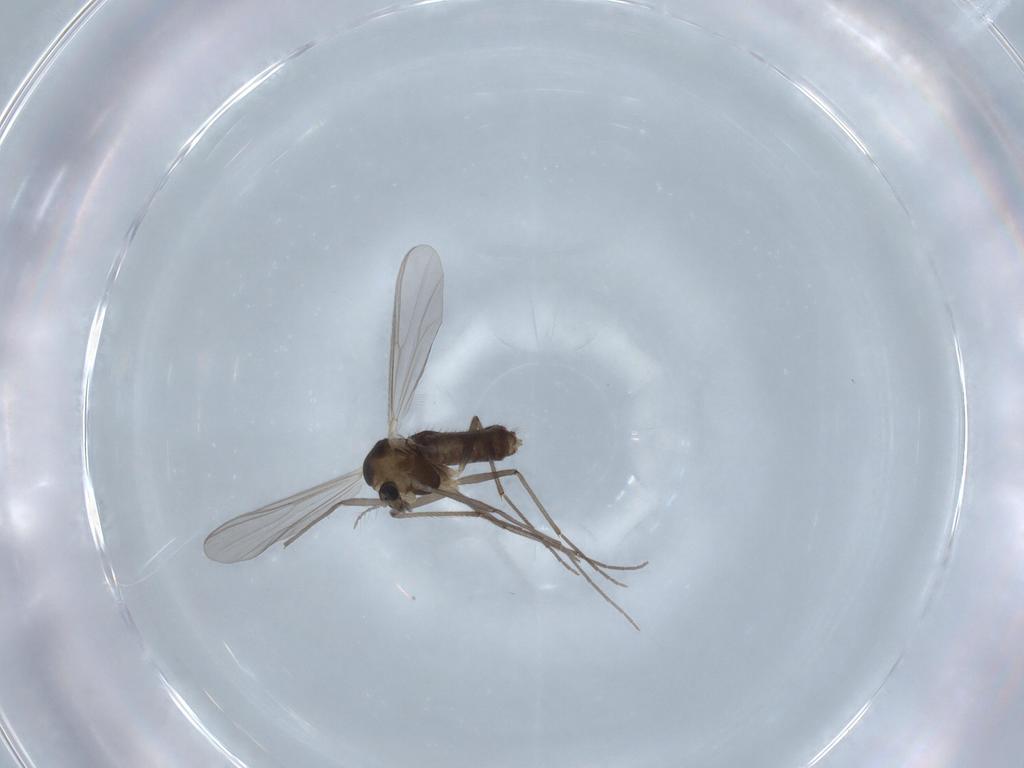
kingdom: Animalia
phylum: Arthropoda
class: Insecta
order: Diptera
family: Chironomidae
